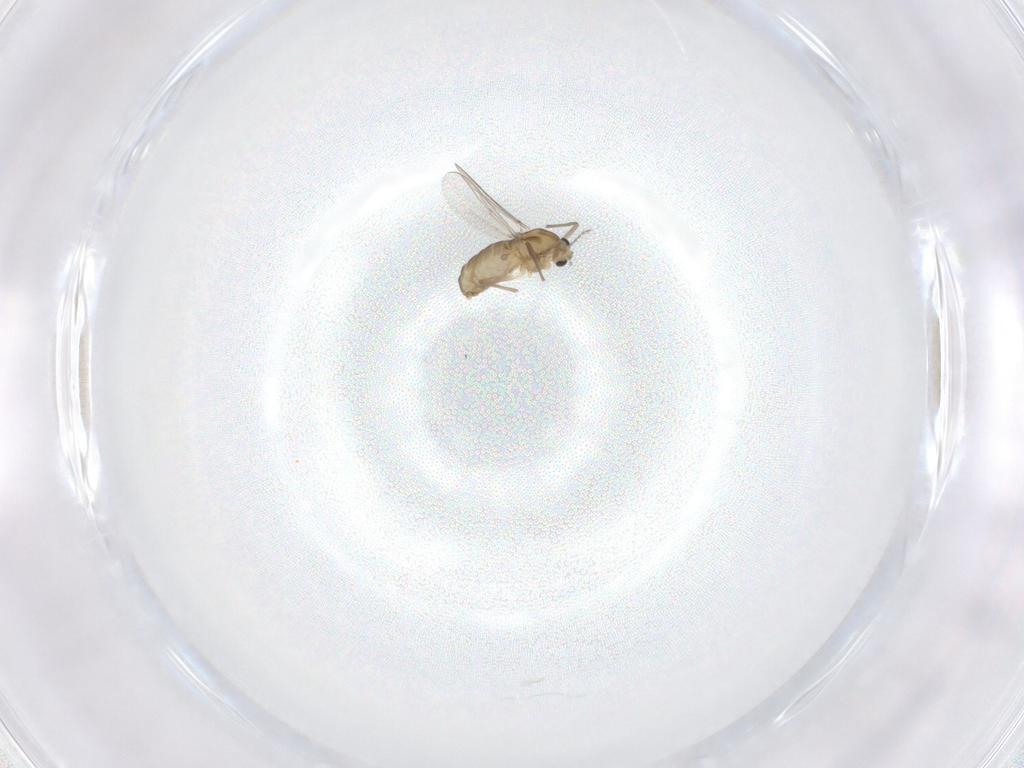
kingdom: Animalia
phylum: Arthropoda
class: Insecta
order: Diptera
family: Chironomidae
